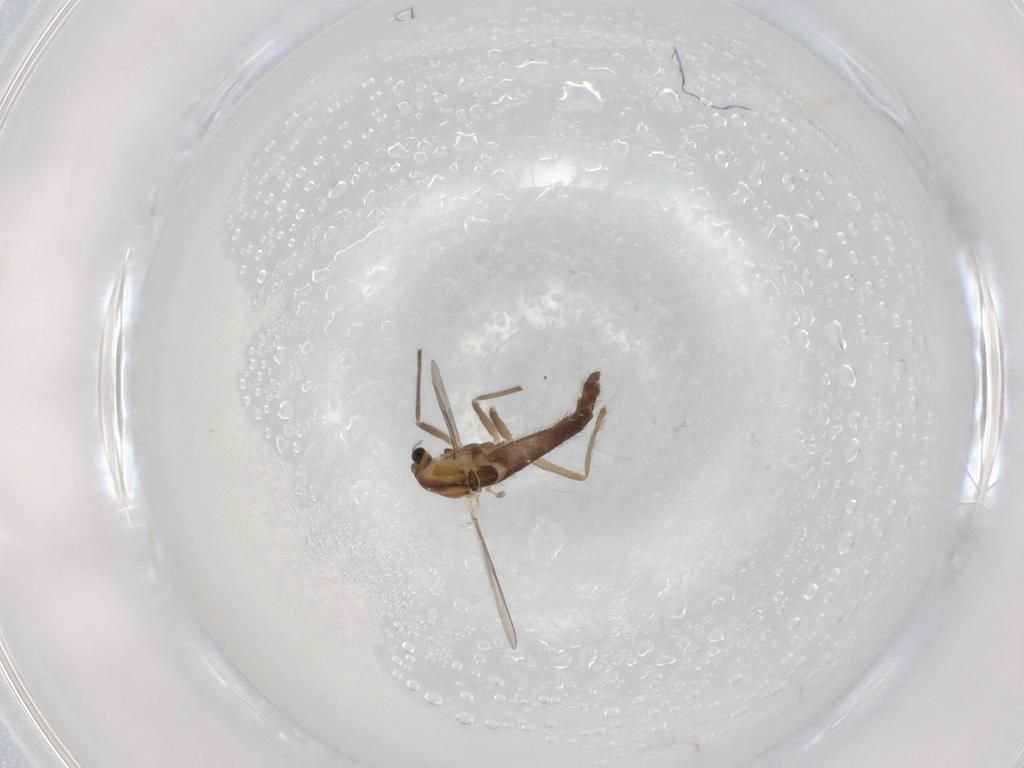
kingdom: Animalia
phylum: Arthropoda
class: Insecta
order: Diptera
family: Chironomidae
